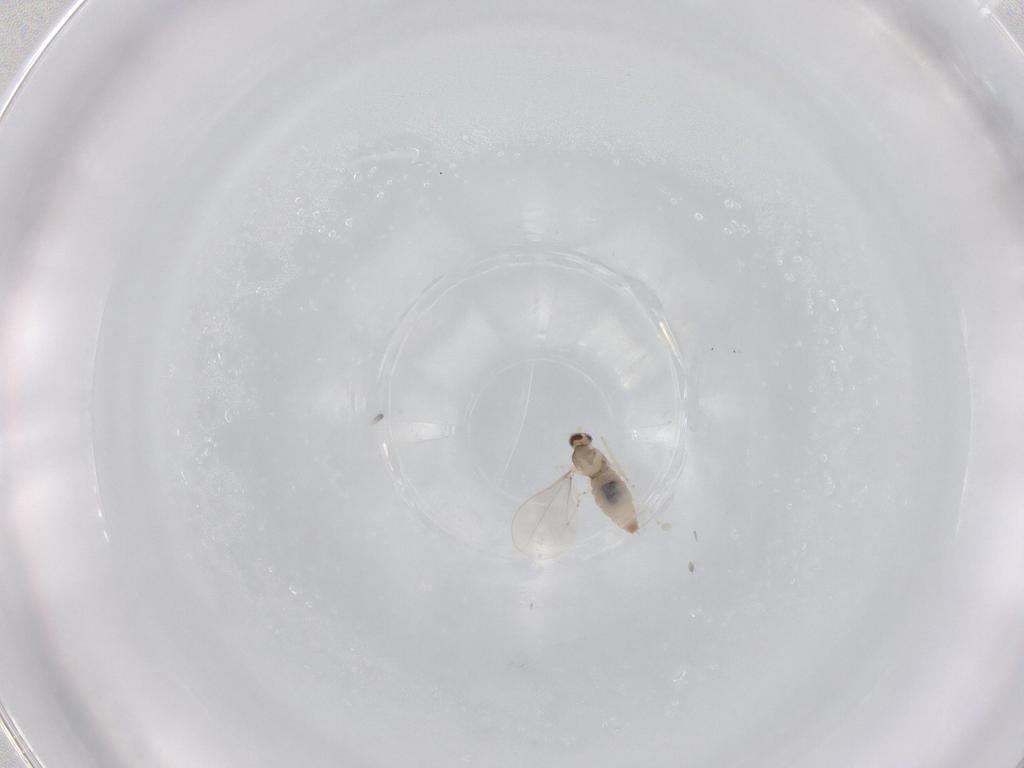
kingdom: Animalia
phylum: Arthropoda
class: Insecta
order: Diptera
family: Cecidomyiidae
